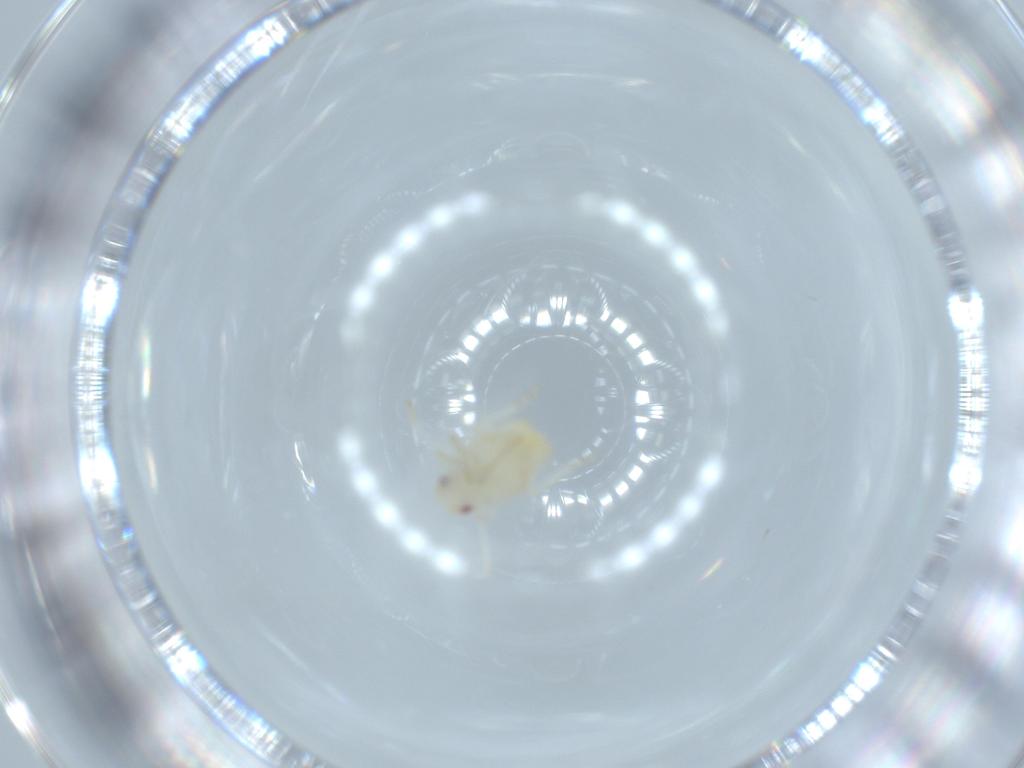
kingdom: Animalia
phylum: Arthropoda
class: Insecta
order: Hemiptera
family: Flatidae
